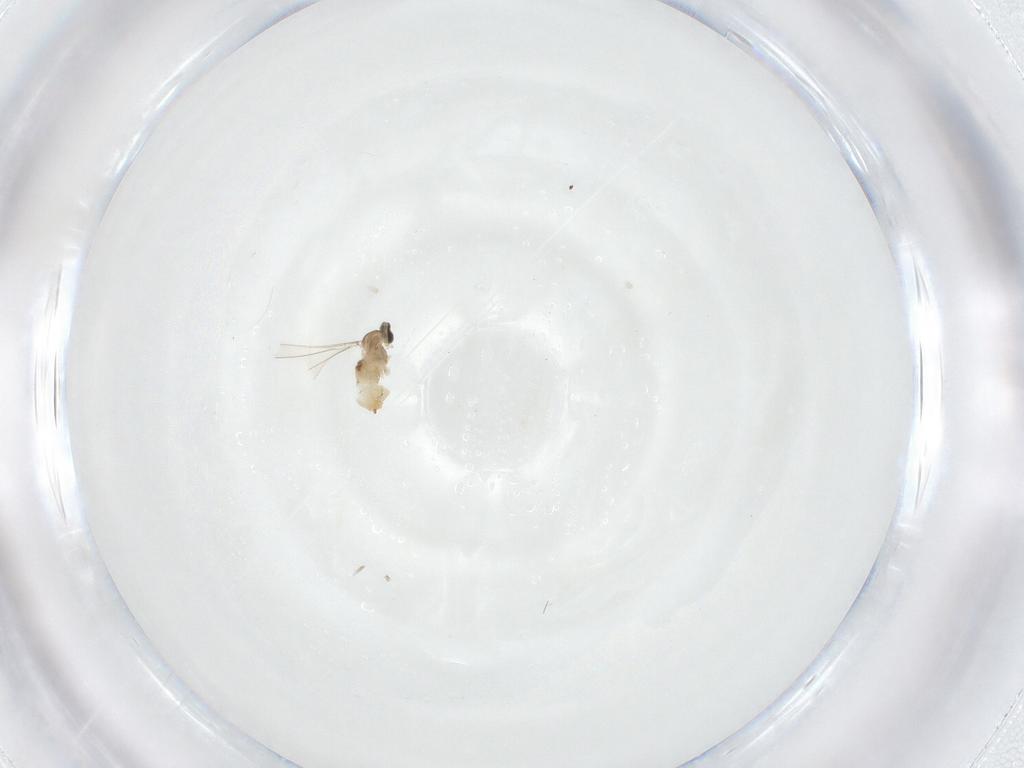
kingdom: Animalia
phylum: Arthropoda
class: Insecta
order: Diptera
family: Cecidomyiidae
